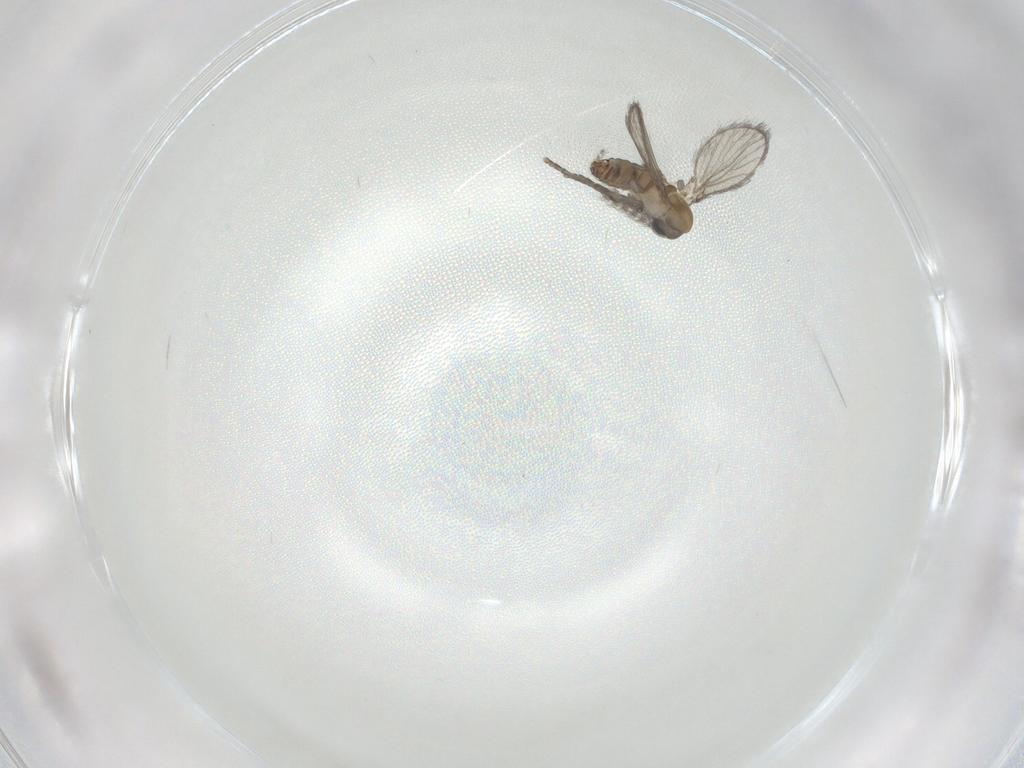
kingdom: Animalia
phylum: Arthropoda
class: Insecta
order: Diptera
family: Psychodidae
